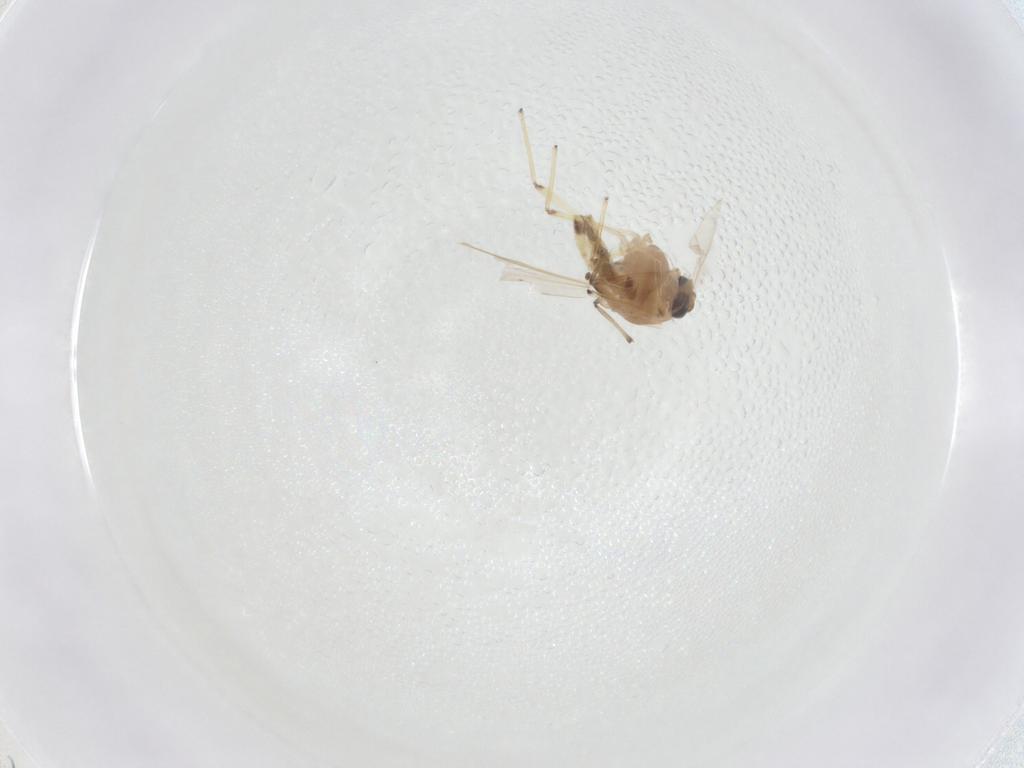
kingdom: Animalia
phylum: Arthropoda
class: Insecta
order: Diptera
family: Chironomidae
